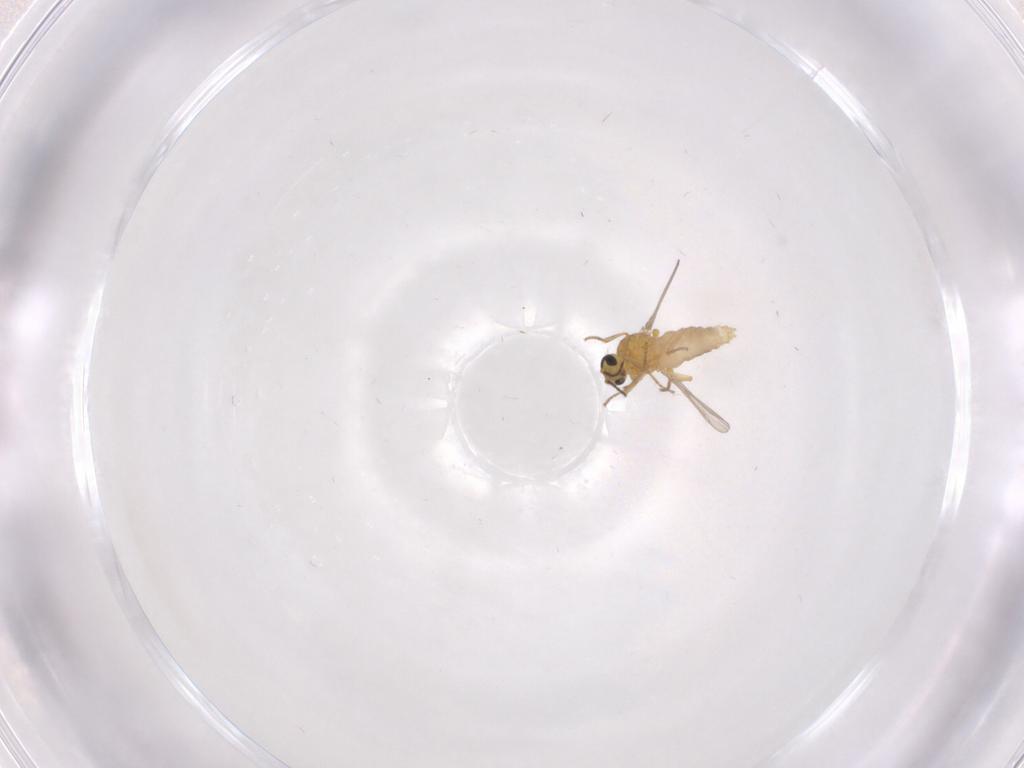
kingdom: Animalia
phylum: Arthropoda
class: Insecta
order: Diptera
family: Ceratopogonidae
